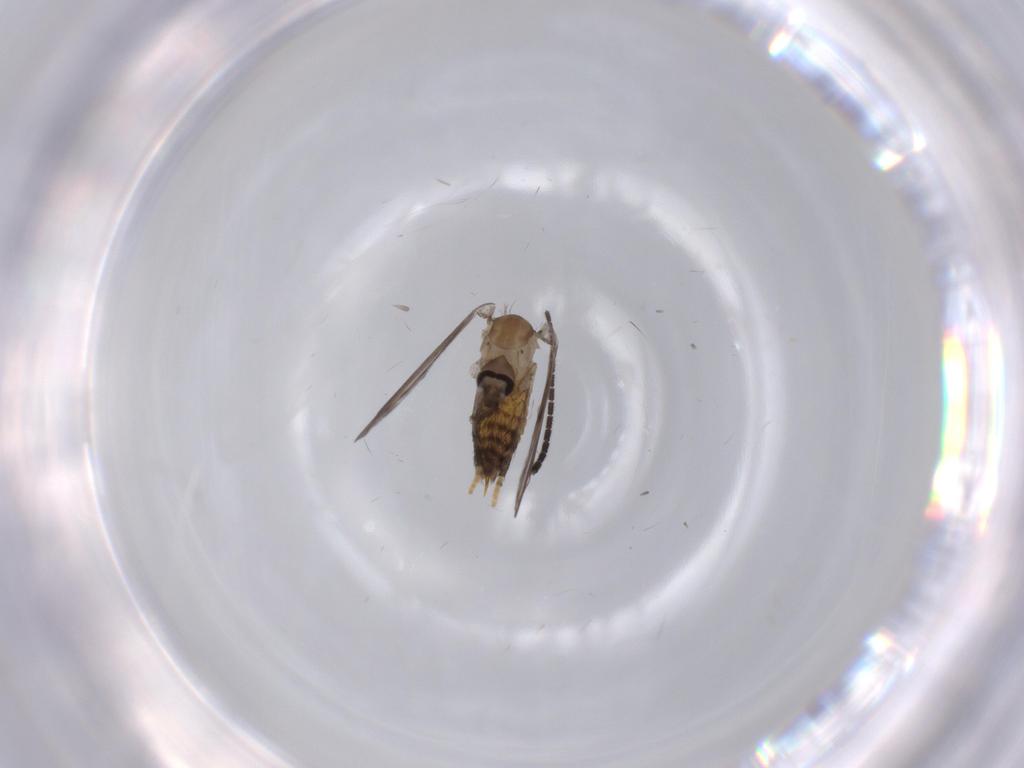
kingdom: Animalia
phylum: Arthropoda
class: Insecta
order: Diptera
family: Psychodidae
